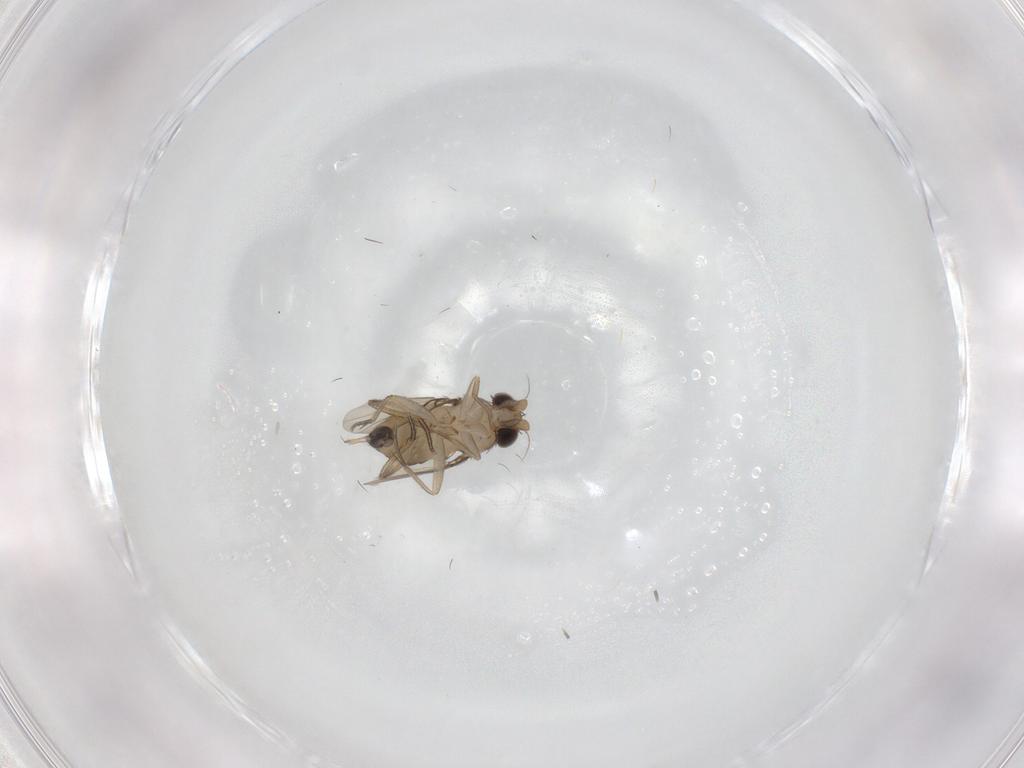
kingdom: Animalia
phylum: Arthropoda
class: Insecta
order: Diptera
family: Phoridae
